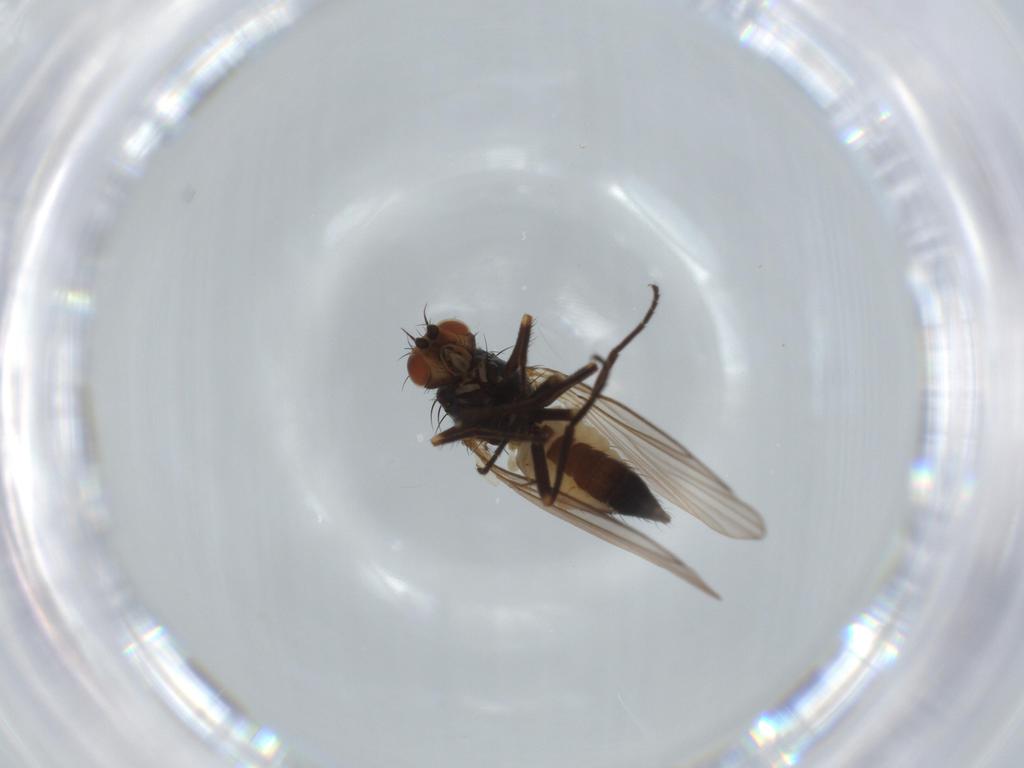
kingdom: Animalia
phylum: Arthropoda
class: Insecta
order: Diptera
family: Agromyzidae
